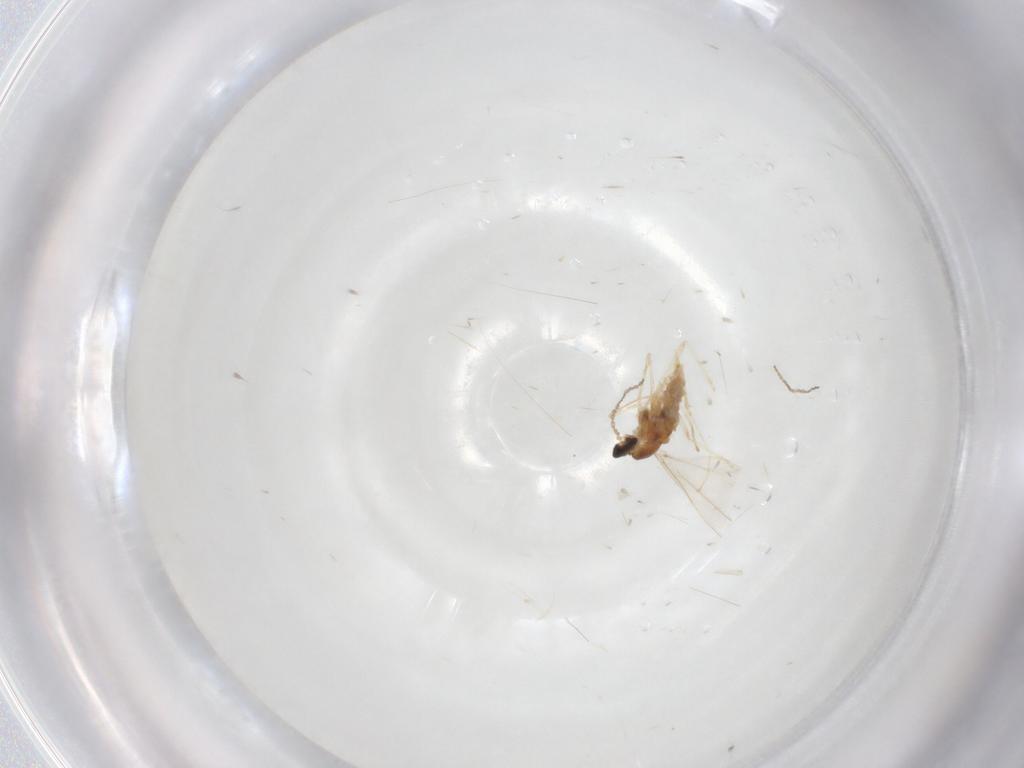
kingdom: Animalia
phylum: Arthropoda
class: Insecta
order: Diptera
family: Cecidomyiidae
